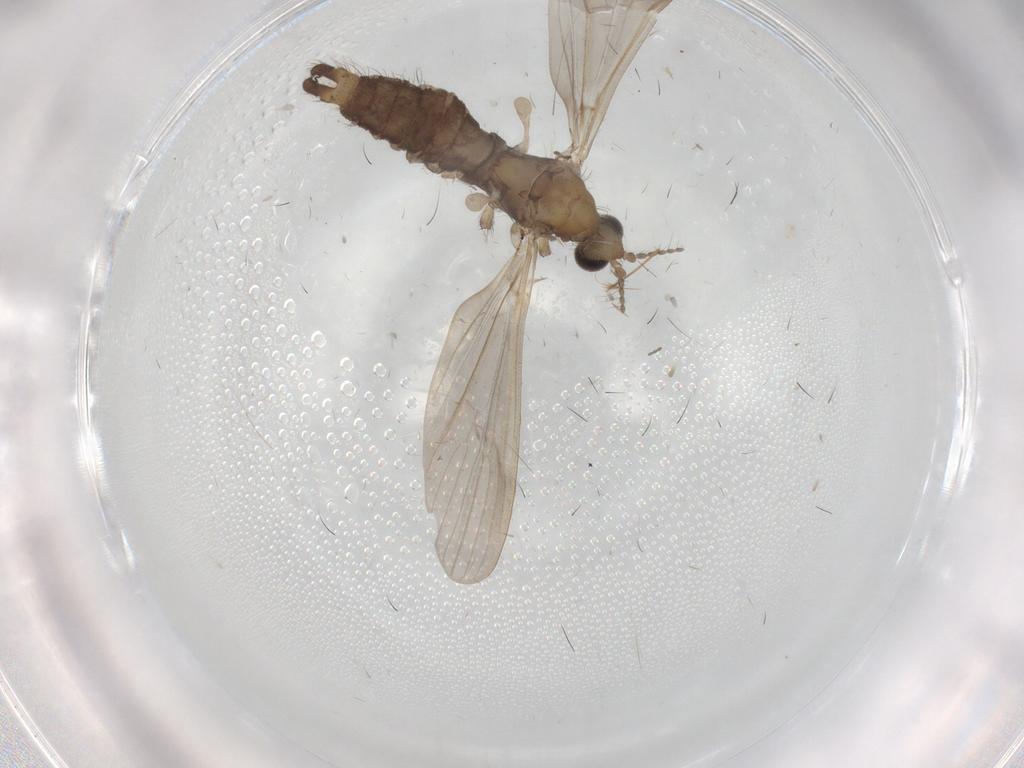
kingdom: Animalia
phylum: Arthropoda
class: Insecta
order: Diptera
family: Limoniidae
